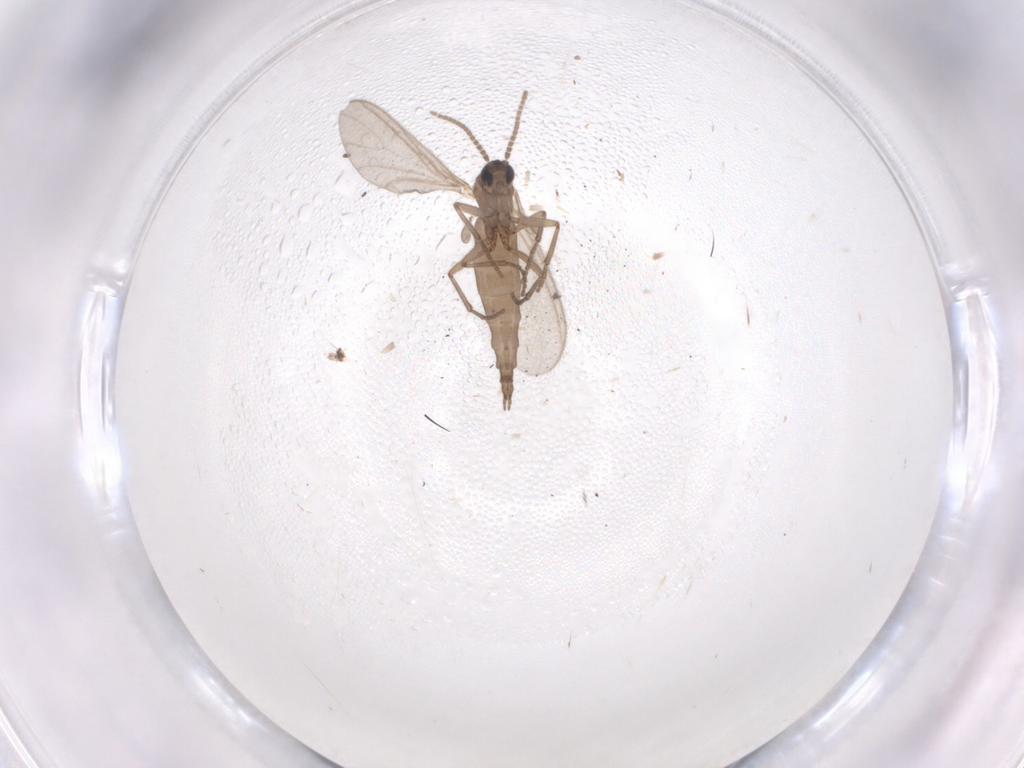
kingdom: Animalia
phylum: Arthropoda
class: Insecta
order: Diptera
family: Sciaridae
